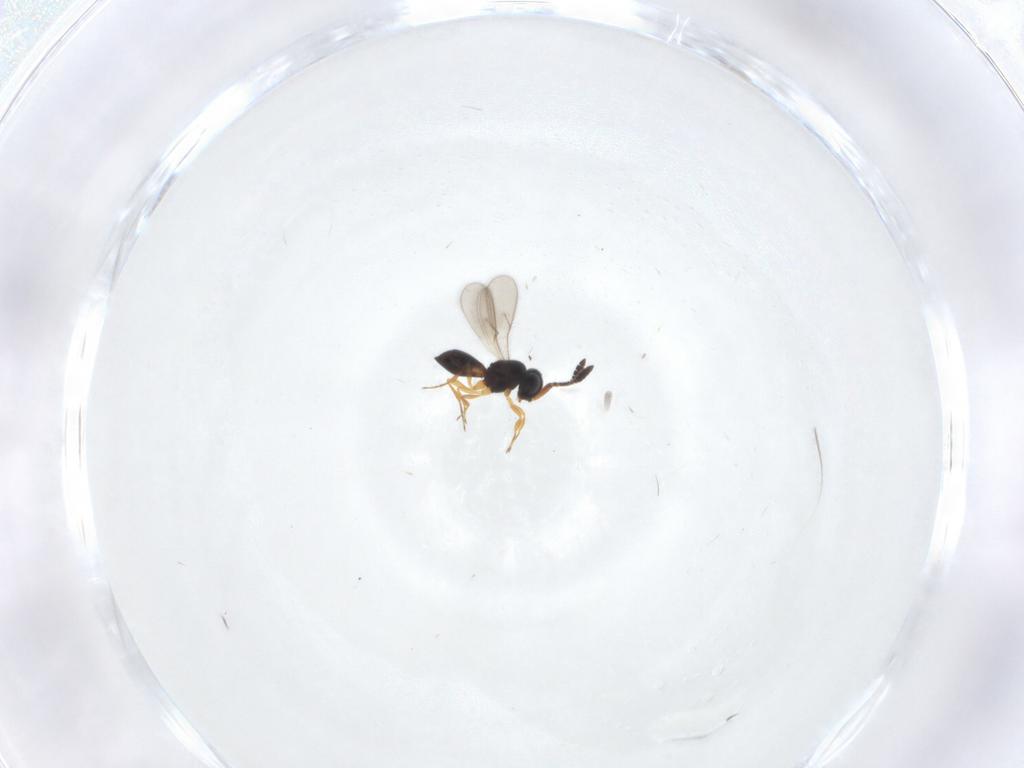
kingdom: Animalia
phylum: Arthropoda
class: Insecta
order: Hymenoptera
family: Scelionidae
